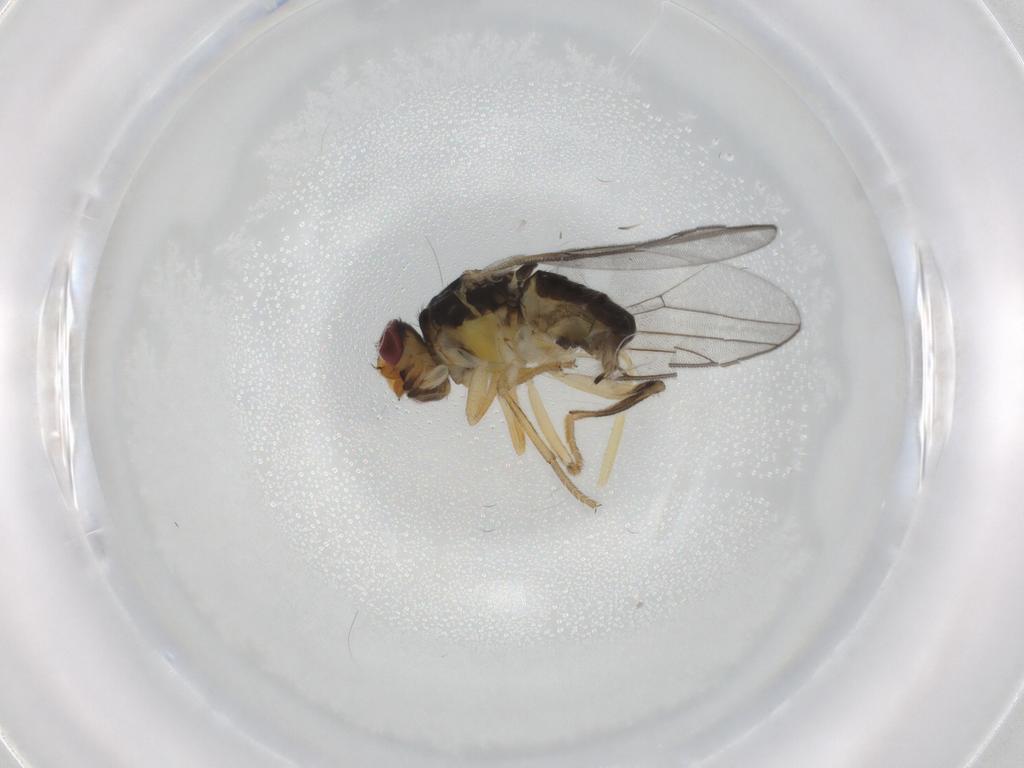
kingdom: Animalia
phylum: Arthropoda
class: Insecta
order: Diptera
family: Chloropidae
